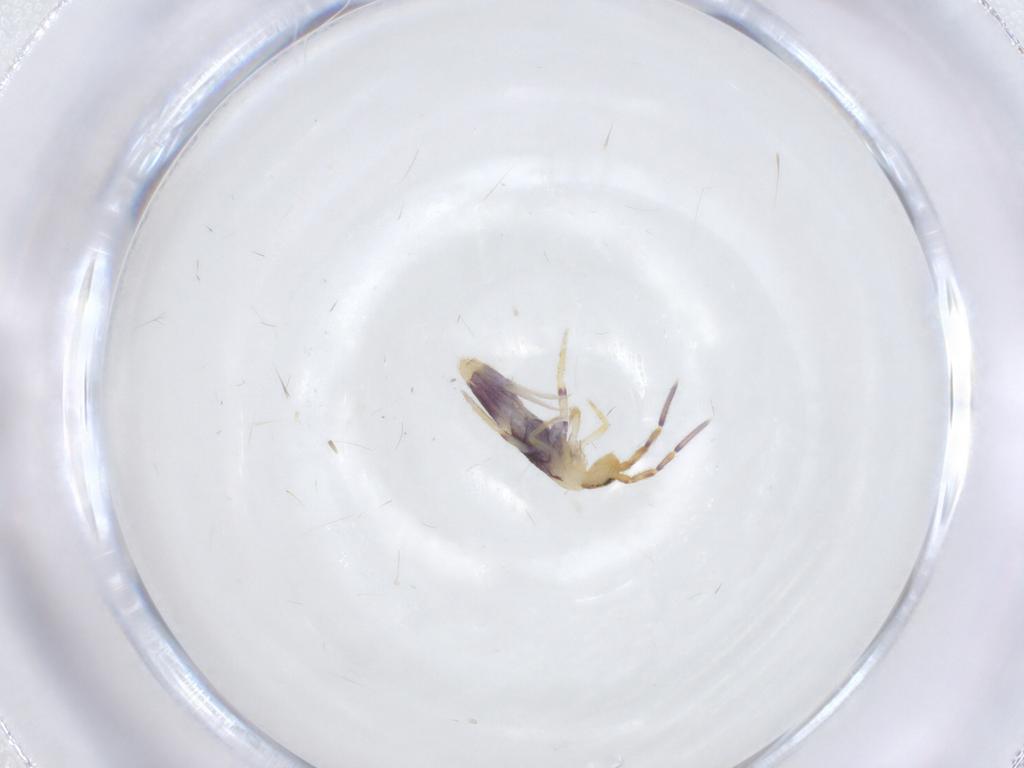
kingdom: Animalia
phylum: Arthropoda
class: Collembola
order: Entomobryomorpha
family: Entomobryidae
